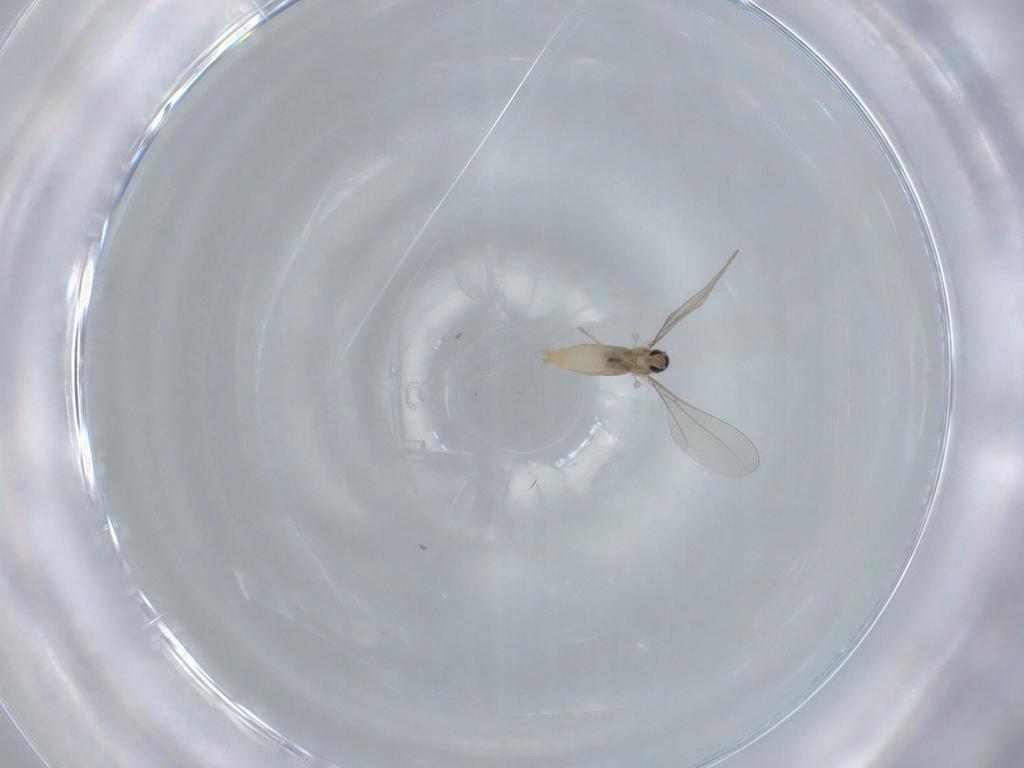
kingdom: Animalia
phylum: Arthropoda
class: Insecta
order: Diptera
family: Cecidomyiidae
